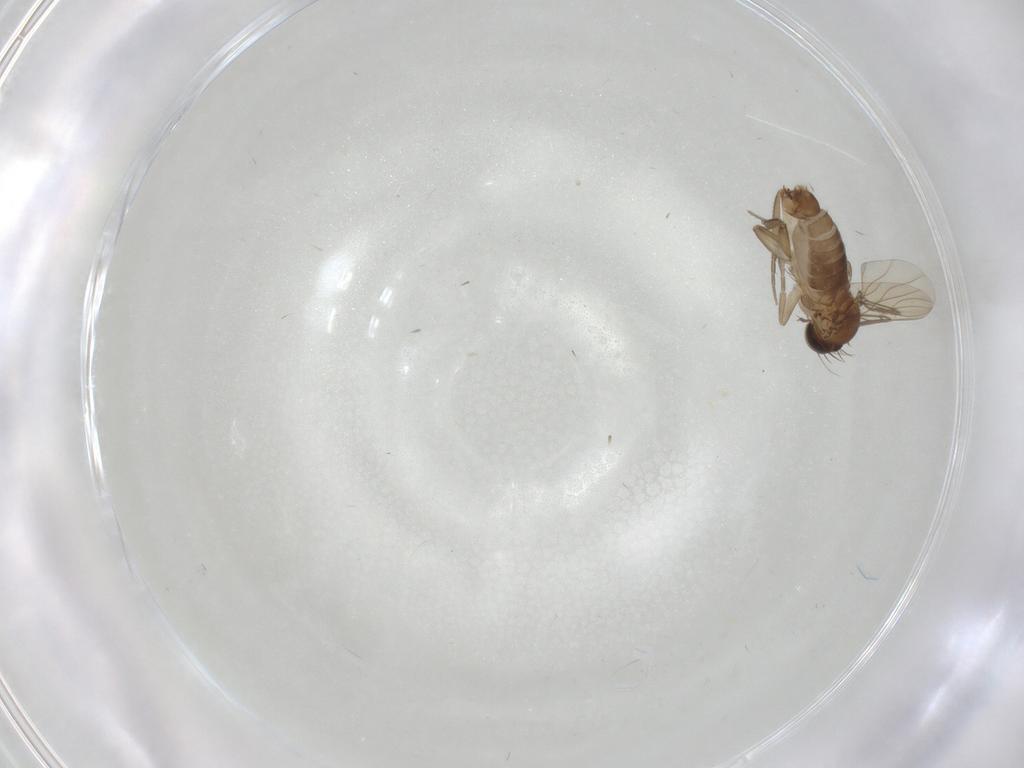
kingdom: Animalia
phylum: Arthropoda
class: Insecta
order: Diptera
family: Phoridae
